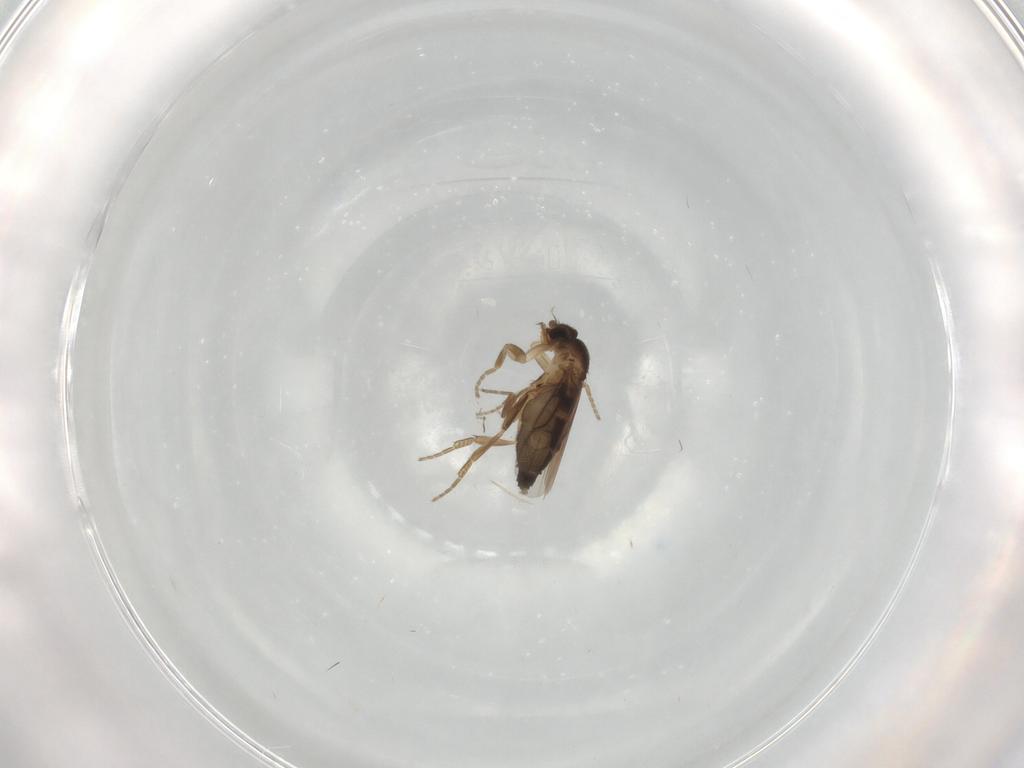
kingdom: Animalia
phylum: Arthropoda
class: Insecta
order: Diptera
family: Phoridae
